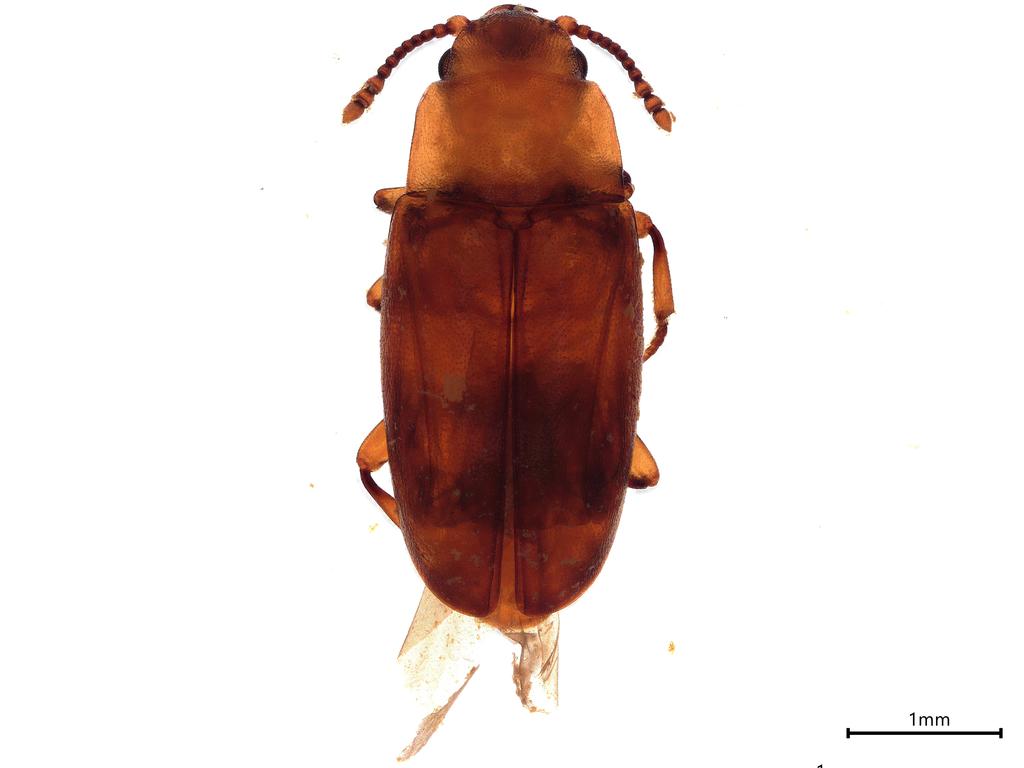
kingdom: Animalia
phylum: Arthropoda
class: Insecta
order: Coleoptera
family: Cryptophagidae
